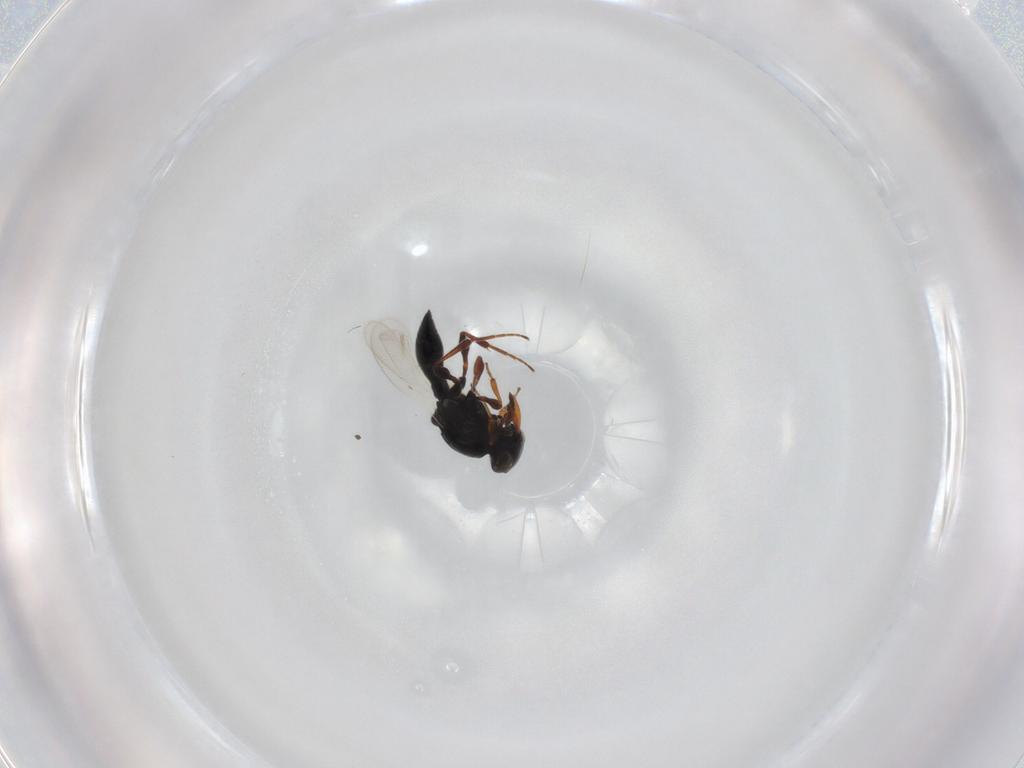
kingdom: Animalia
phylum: Arthropoda
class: Insecta
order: Hymenoptera
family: Platygastridae
